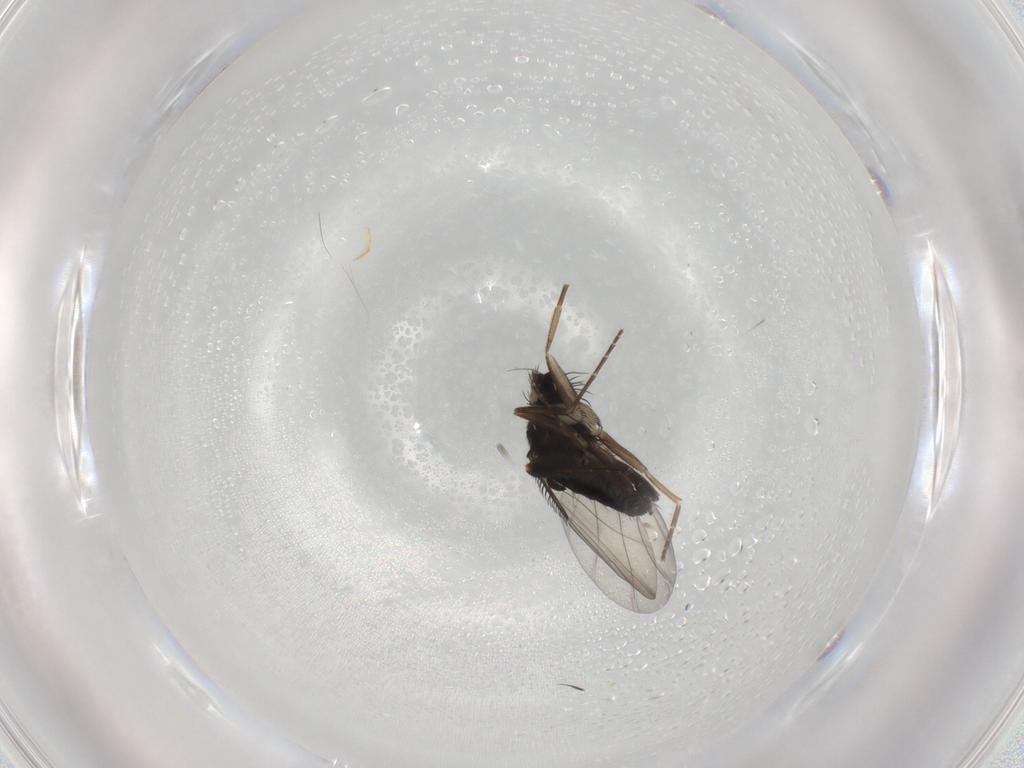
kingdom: Animalia
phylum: Arthropoda
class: Insecta
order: Diptera
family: Phoridae
